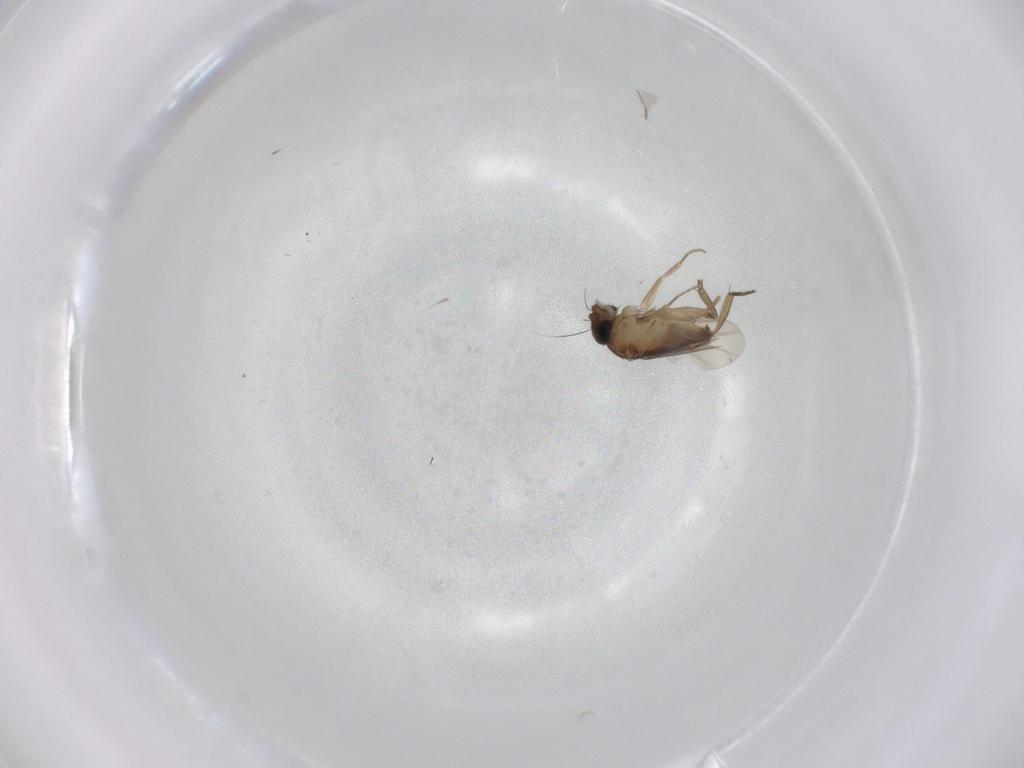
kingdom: Animalia
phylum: Arthropoda
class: Insecta
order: Diptera
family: Phoridae
